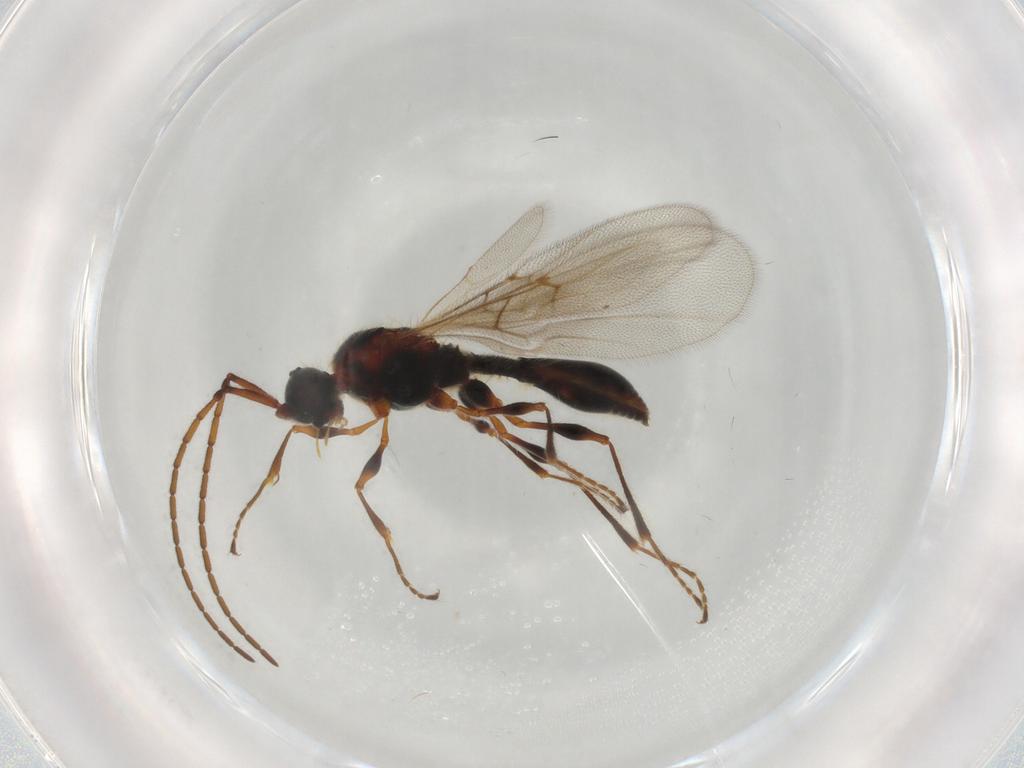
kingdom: Animalia
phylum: Arthropoda
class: Insecta
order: Hymenoptera
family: Diapriidae
